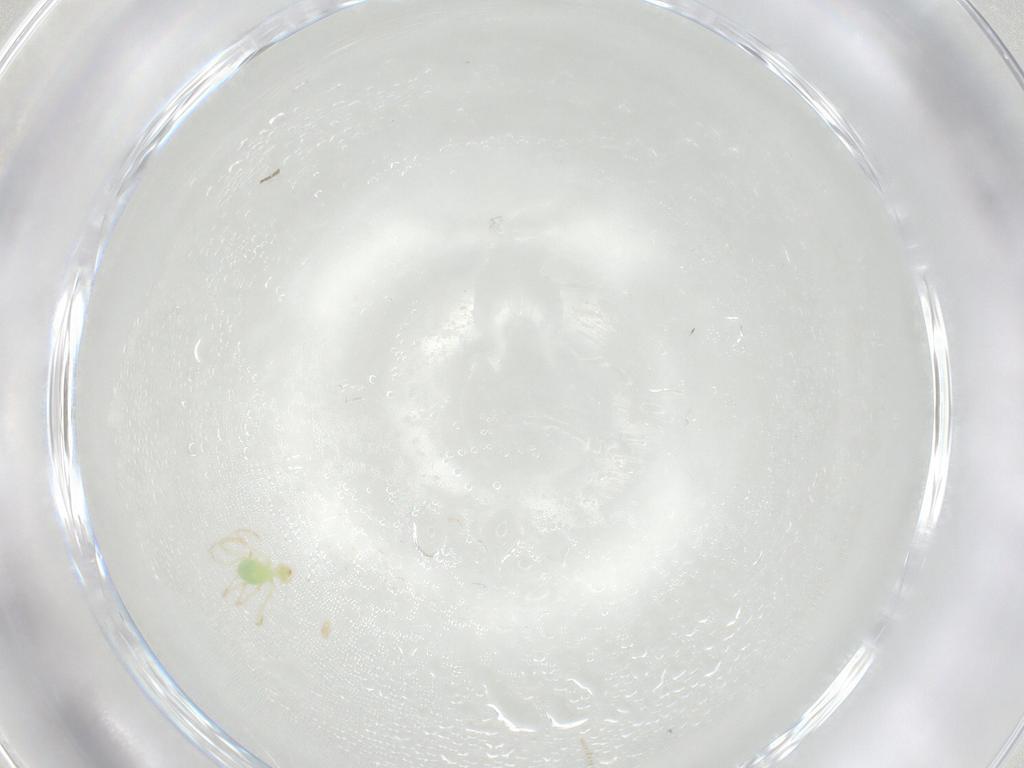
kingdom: Animalia
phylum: Arthropoda
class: Arachnida
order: Trombidiformes
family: Erythraeidae
